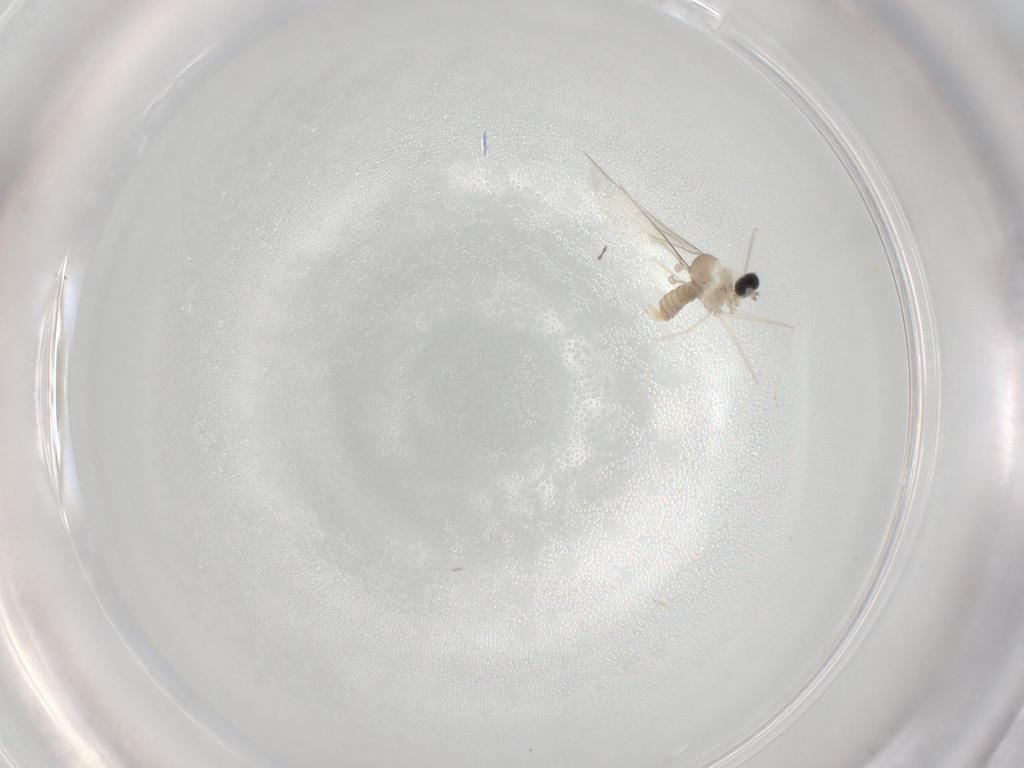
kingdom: Animalia
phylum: Arthropoda
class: Insecta
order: Diptera
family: Cecidomyiidae
